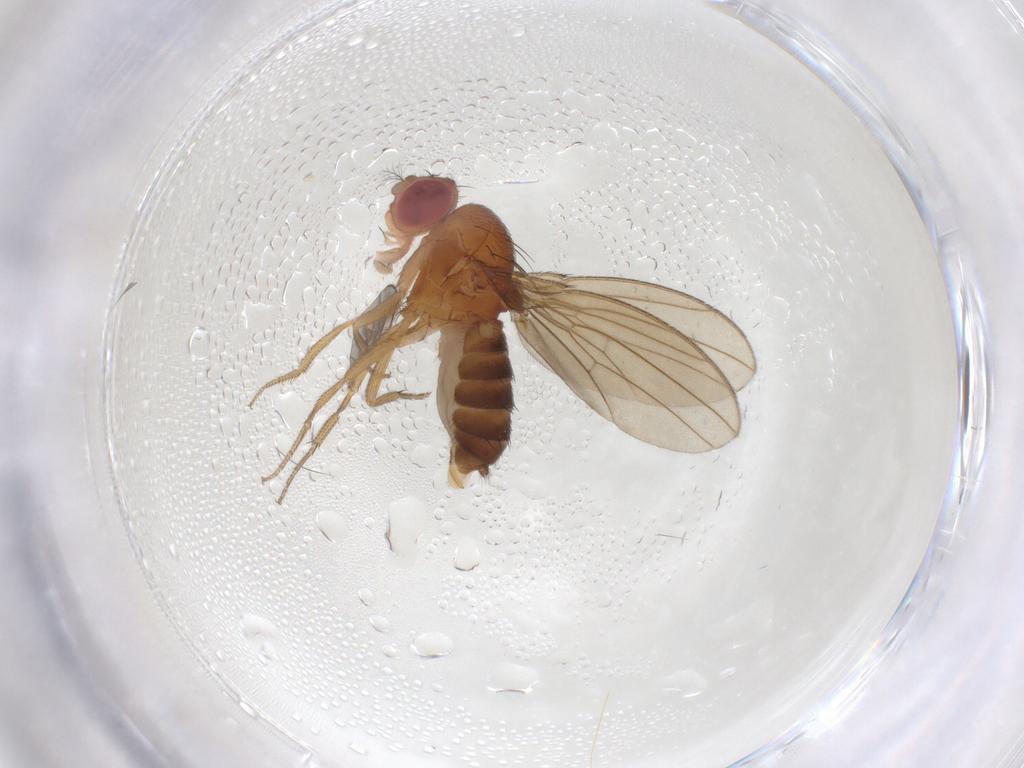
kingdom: Animalia
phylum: Arthropoda
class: Insecta
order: Diptera
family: Drosophilidae
